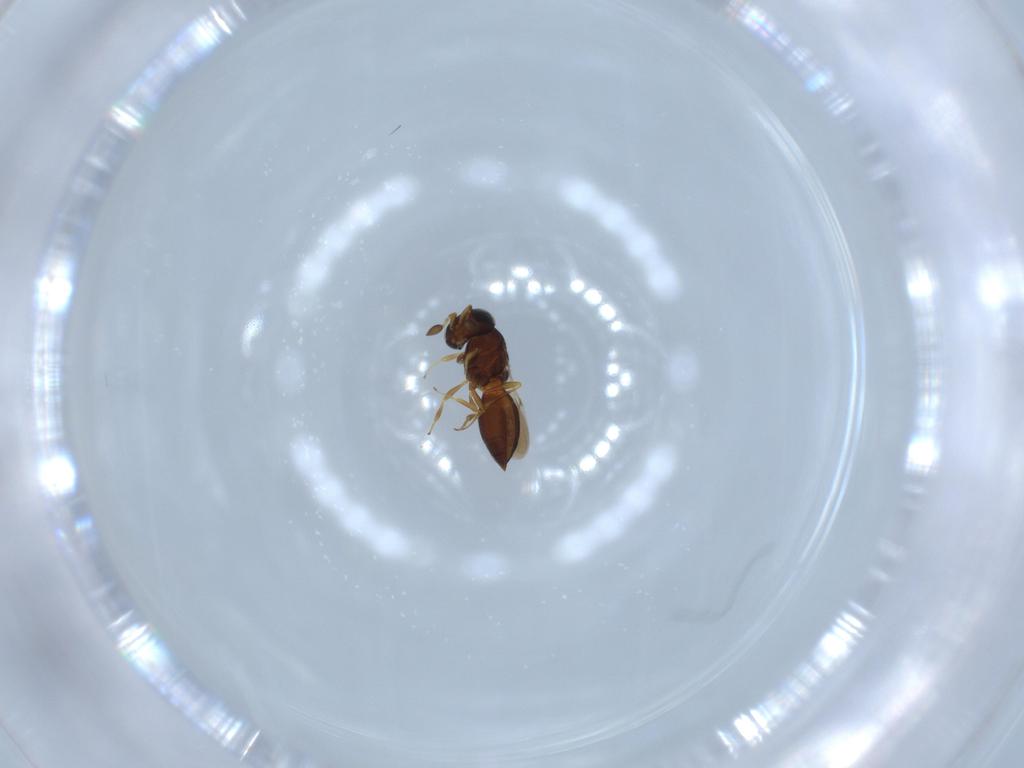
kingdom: Animalia
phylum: Arthropoda
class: Insecta
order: Hymenoptera
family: Scelionidae
